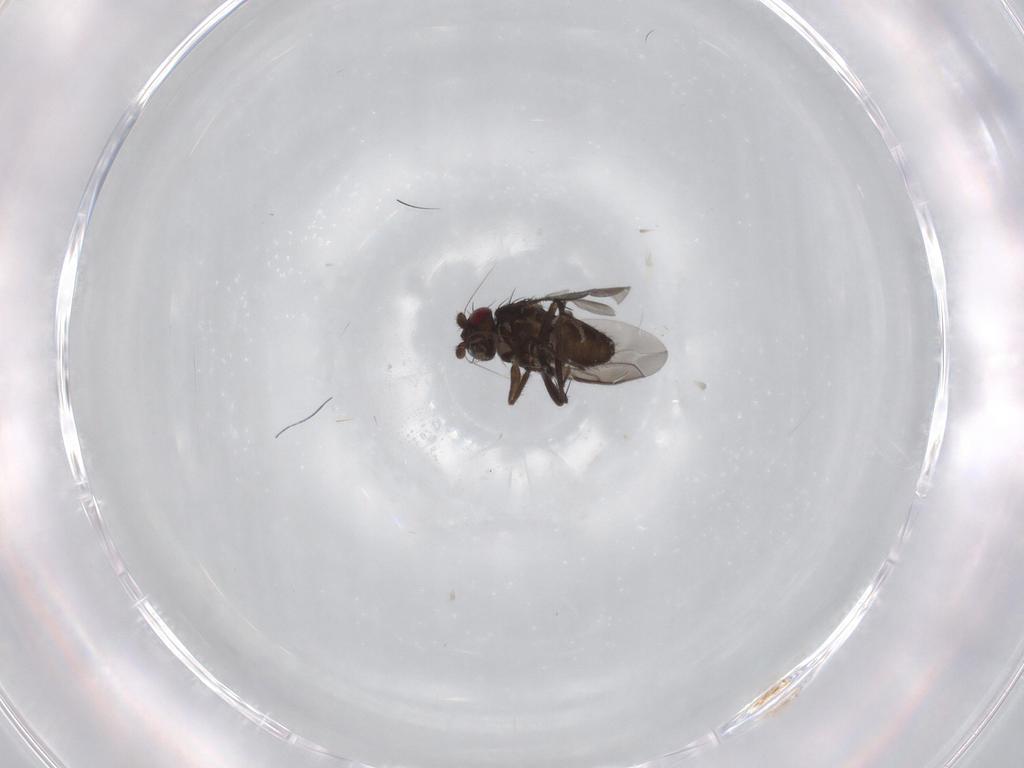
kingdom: Animalia
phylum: Arthropoda
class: Insecta
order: Diptera
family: Sphaeroceridae
